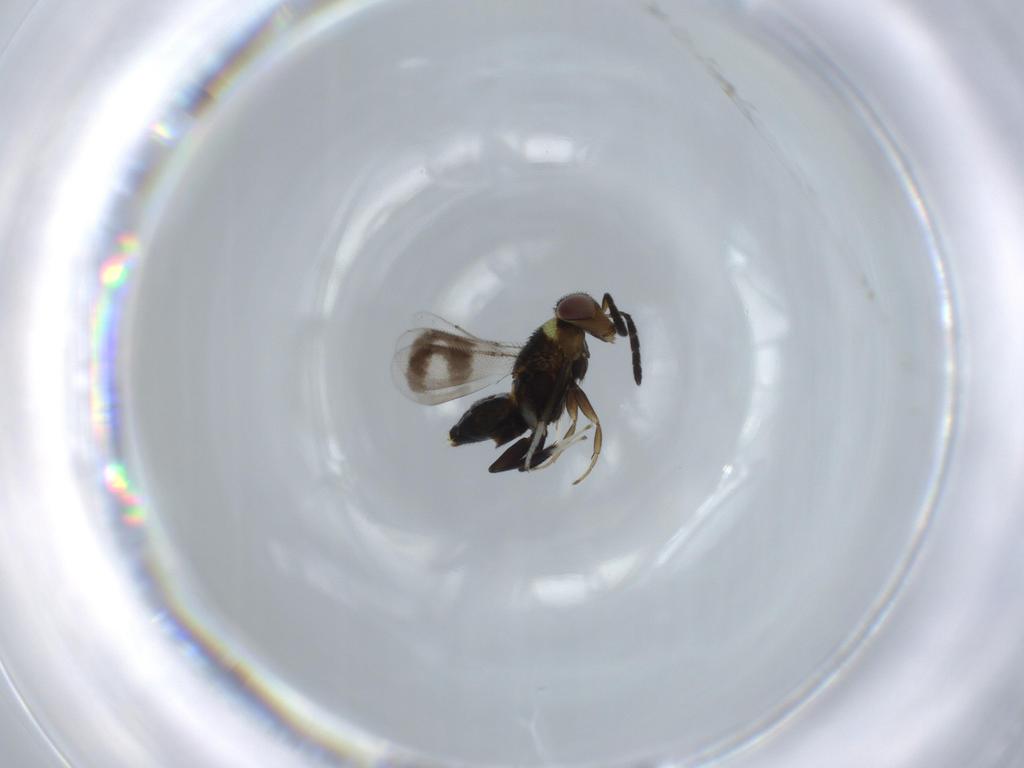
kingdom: Animalia
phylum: Arthropoda
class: Insecta
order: Hymenoptera
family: Aphelinidae
